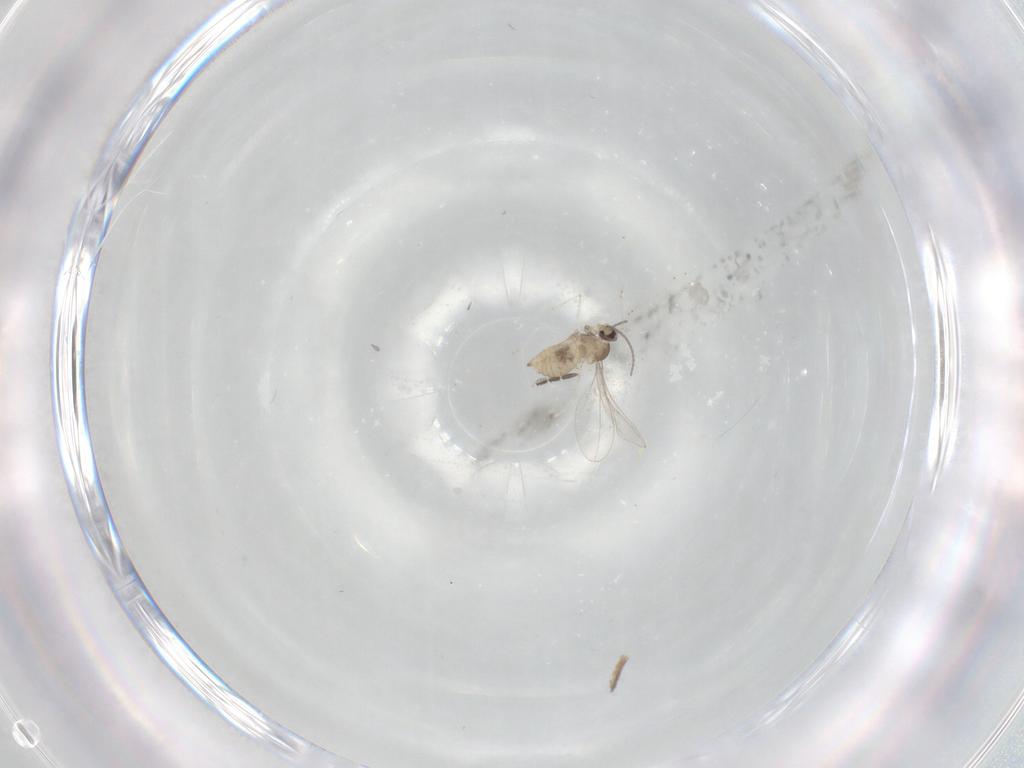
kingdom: Animalia
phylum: Arthropoda
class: Insecta
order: Diptera
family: Cecidomyiidae
